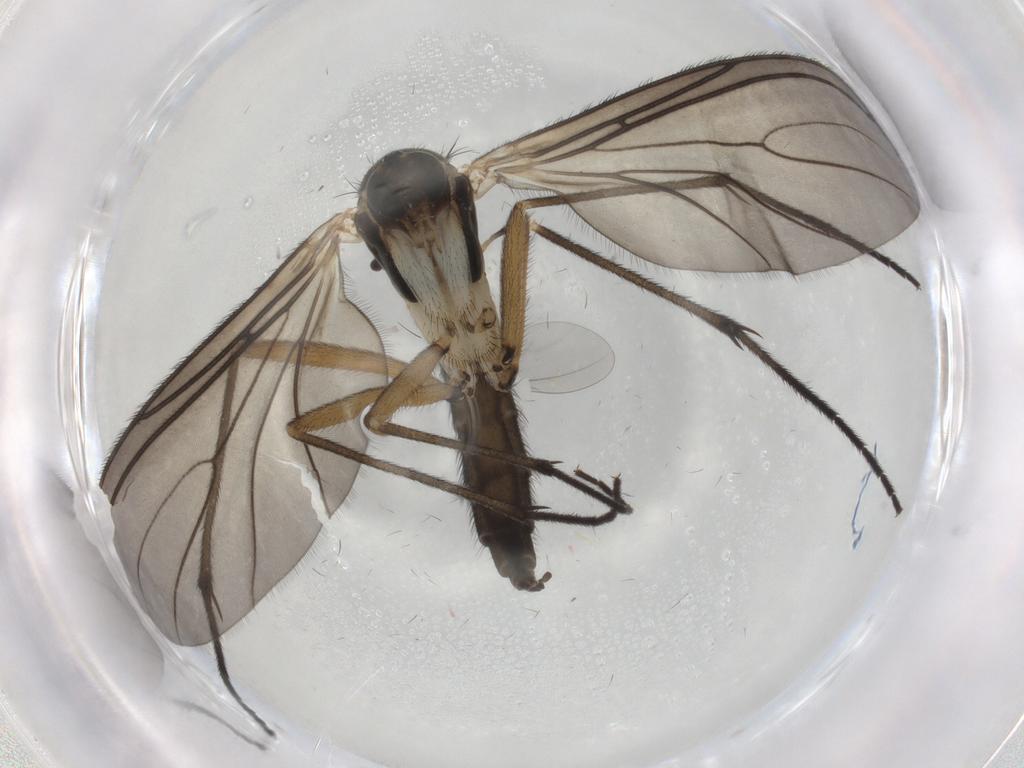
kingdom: Animalia
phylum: Arthropoda
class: Insecta
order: Diptera
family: Sciaridae
